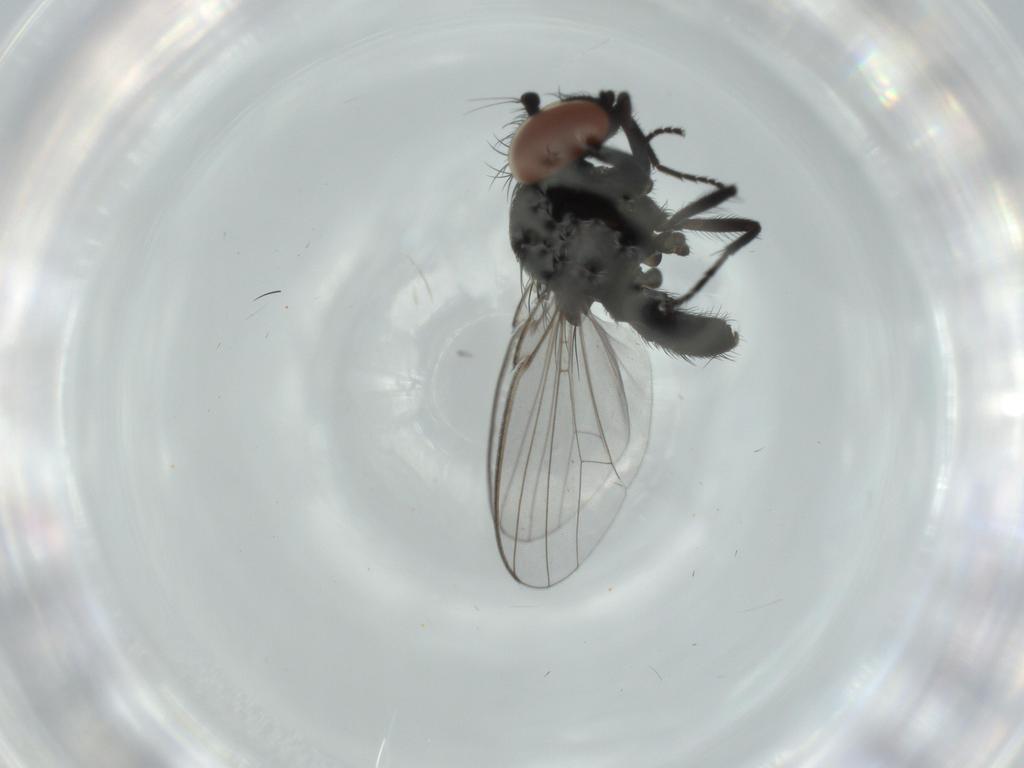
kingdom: Animalia
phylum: Arthropoda
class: Insecta
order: Diptera
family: Milichiidae
